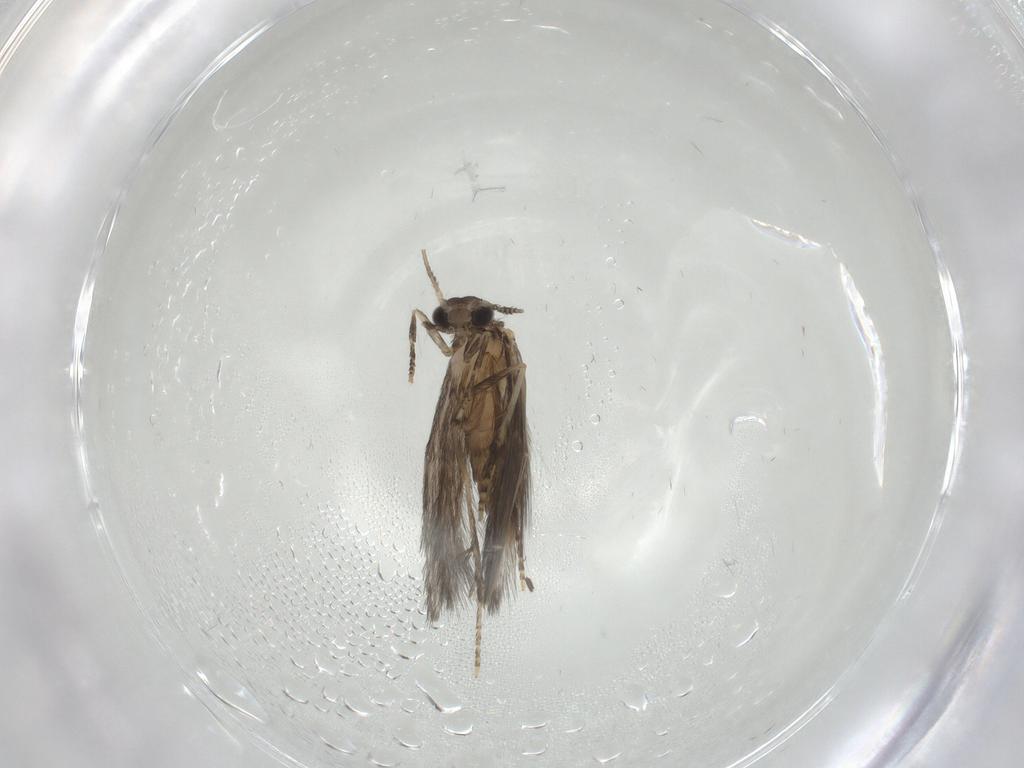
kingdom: Animalia
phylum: Arthropoda
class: Insecta
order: Trichoptera
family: Hydroptilidae
